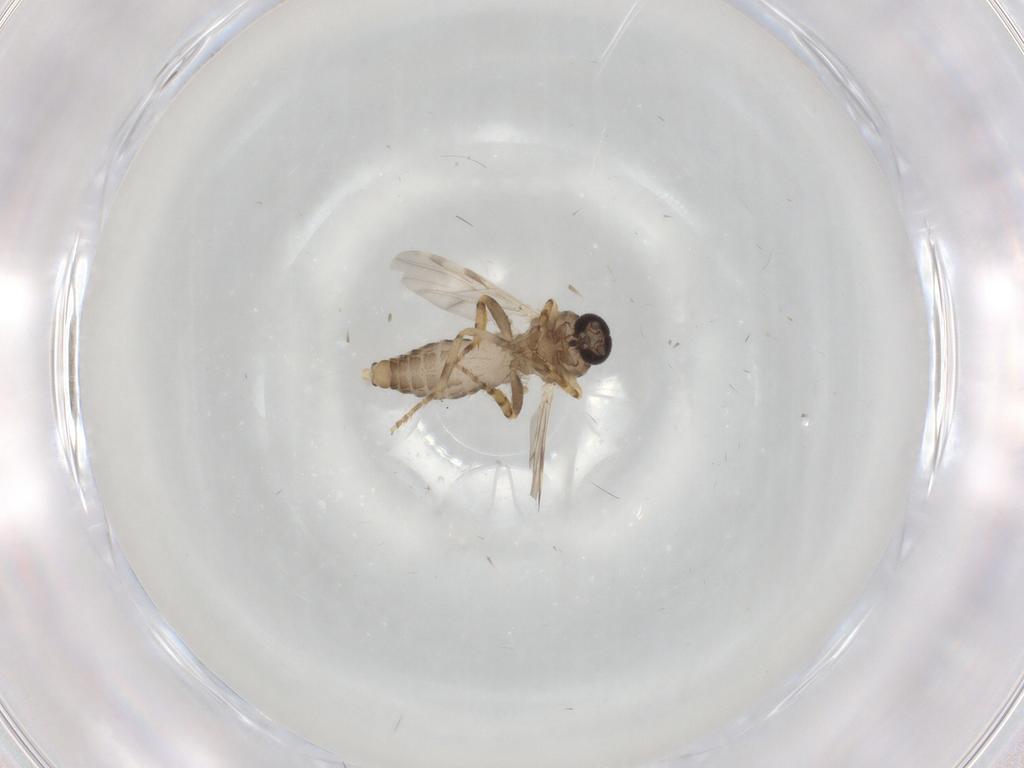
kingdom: Animalia
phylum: Arthropoda
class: Insecta
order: Diptera
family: Ceratopogonidae
